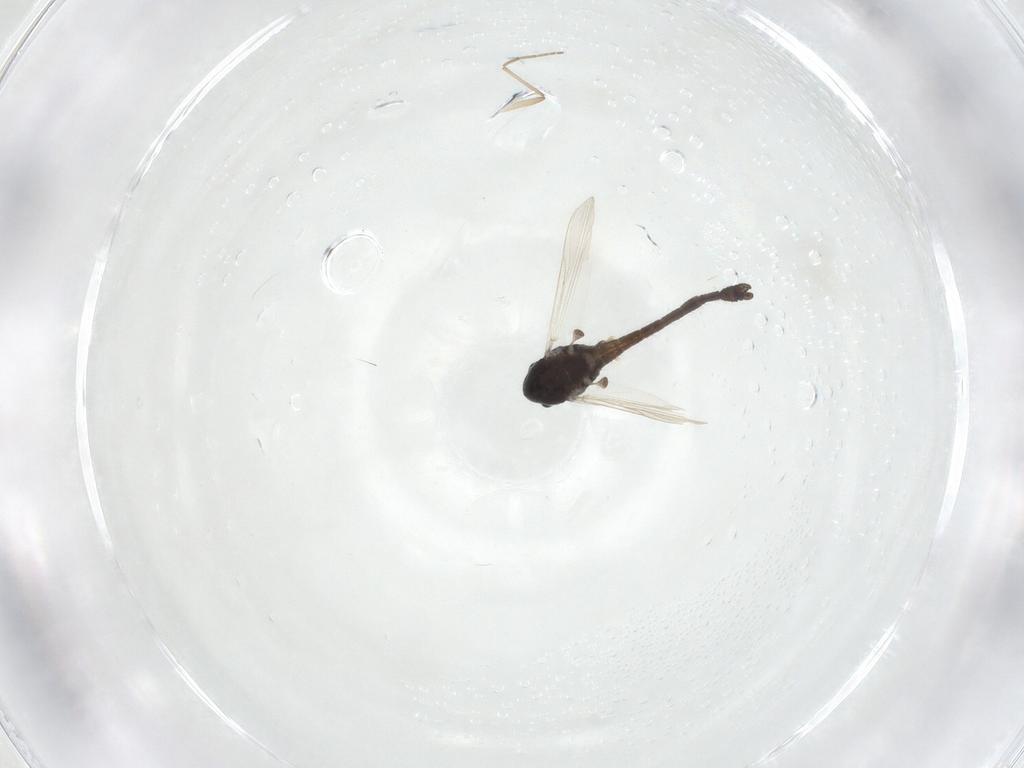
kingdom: Animalia
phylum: Arthropoda
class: Insecta
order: Diptera
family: Chironomidae
